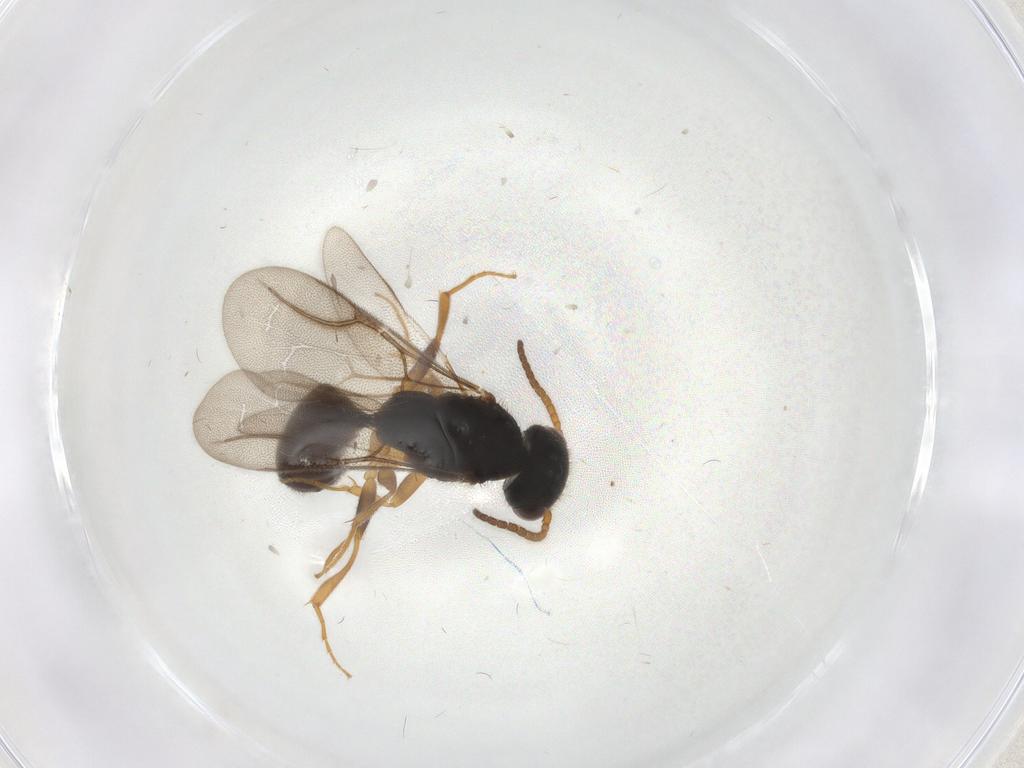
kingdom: Animalia
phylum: Arthropoda
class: Insecta
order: Hymenoptera
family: Bethylidae
